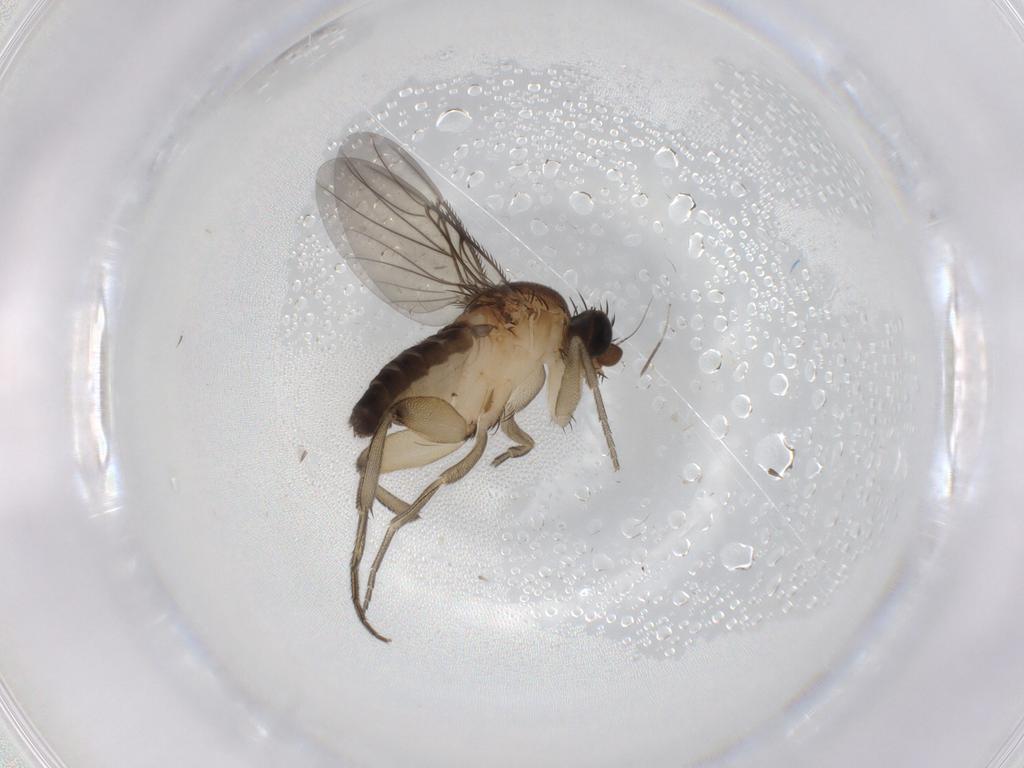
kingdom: Animalia
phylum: Arthropoda
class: Insecta
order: Diptera
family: Phoridae
